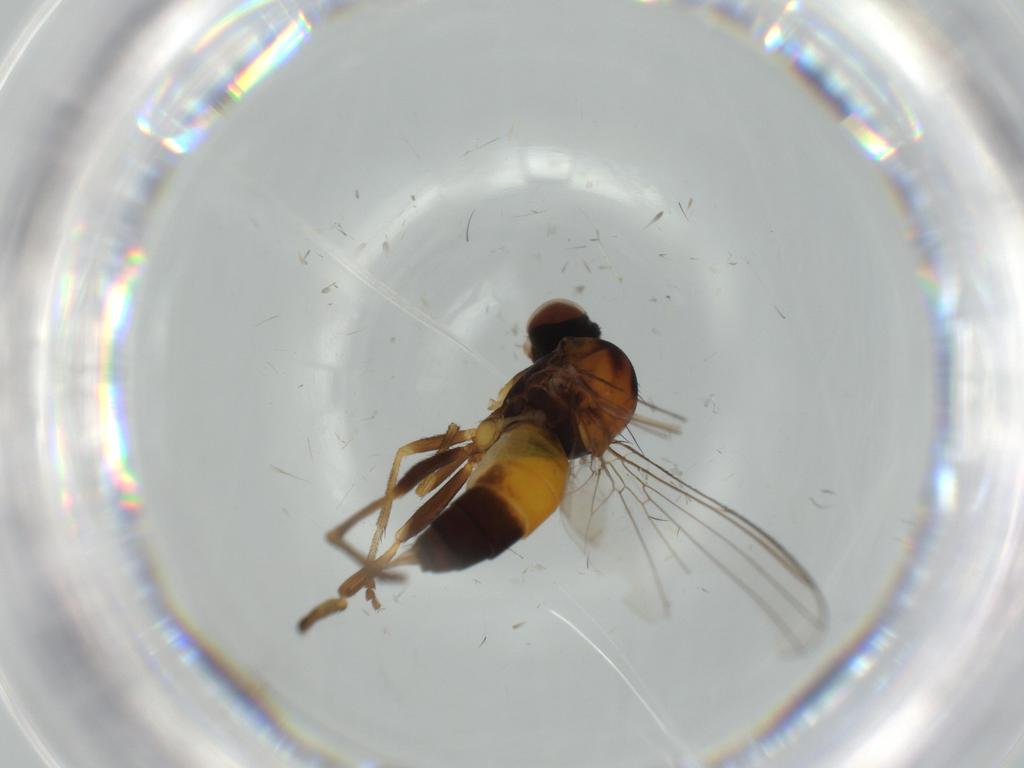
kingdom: Animalia
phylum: Arthropoda
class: Insecta
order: Diptera
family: Platypezidae
